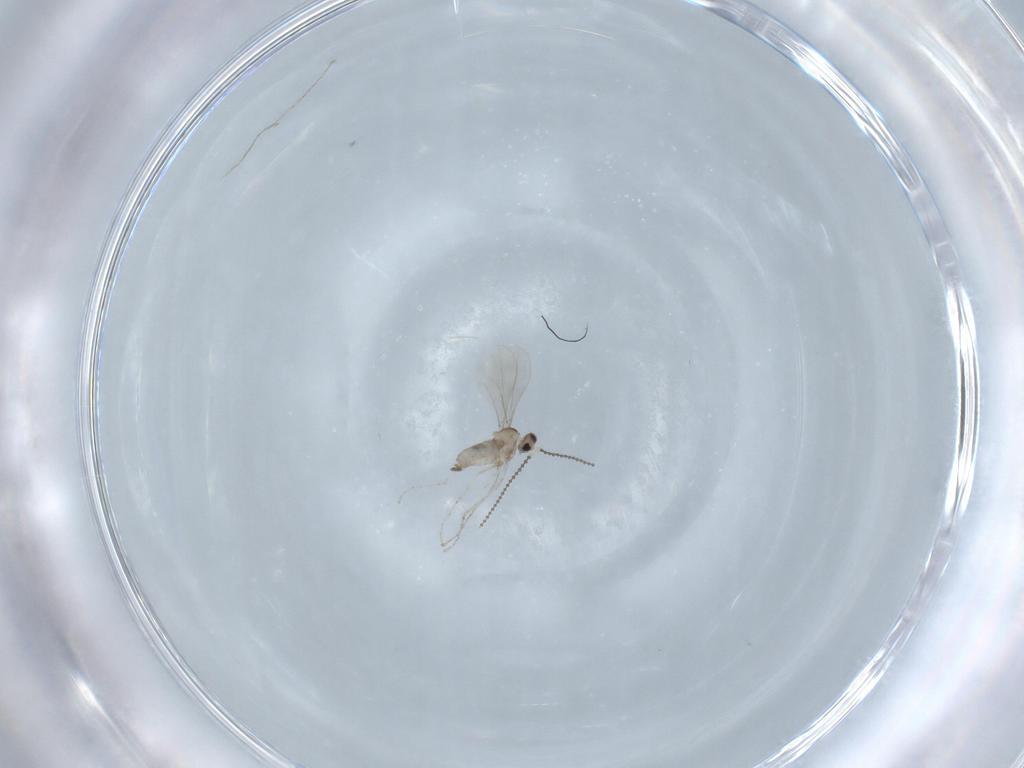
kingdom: Animalia
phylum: Arthropoda
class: Insecta
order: Diptera
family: Cecidomyiidae
